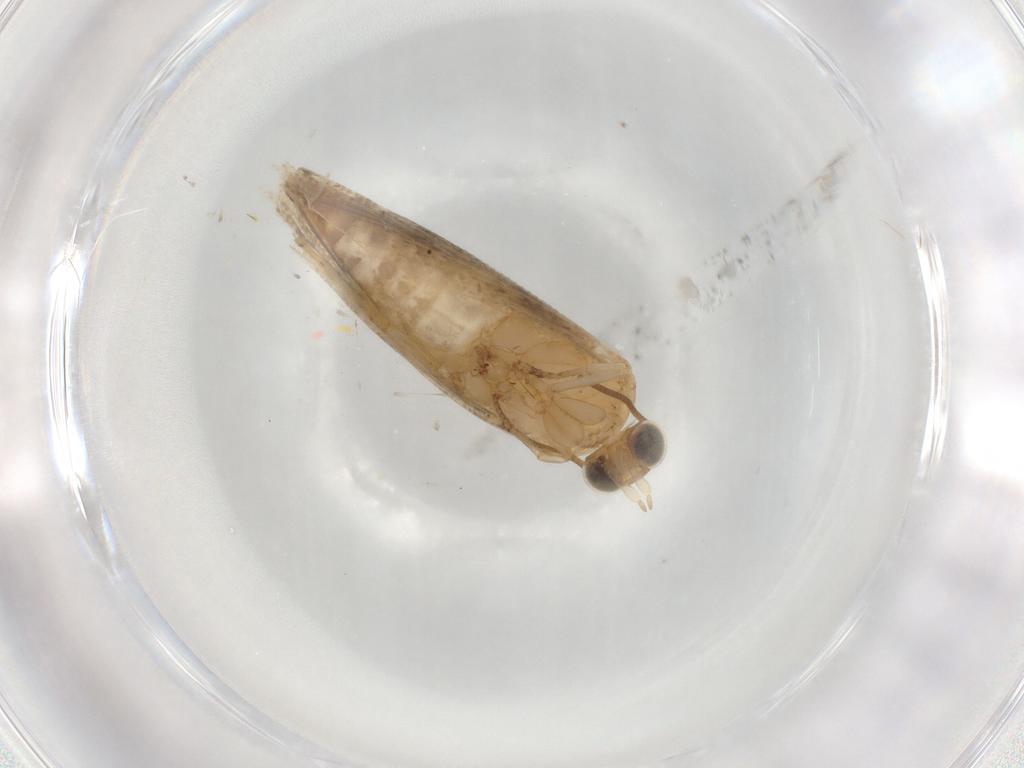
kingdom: Animalia
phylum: Arthropoda
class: Insecta
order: Lepidoptera
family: Tortricidae
